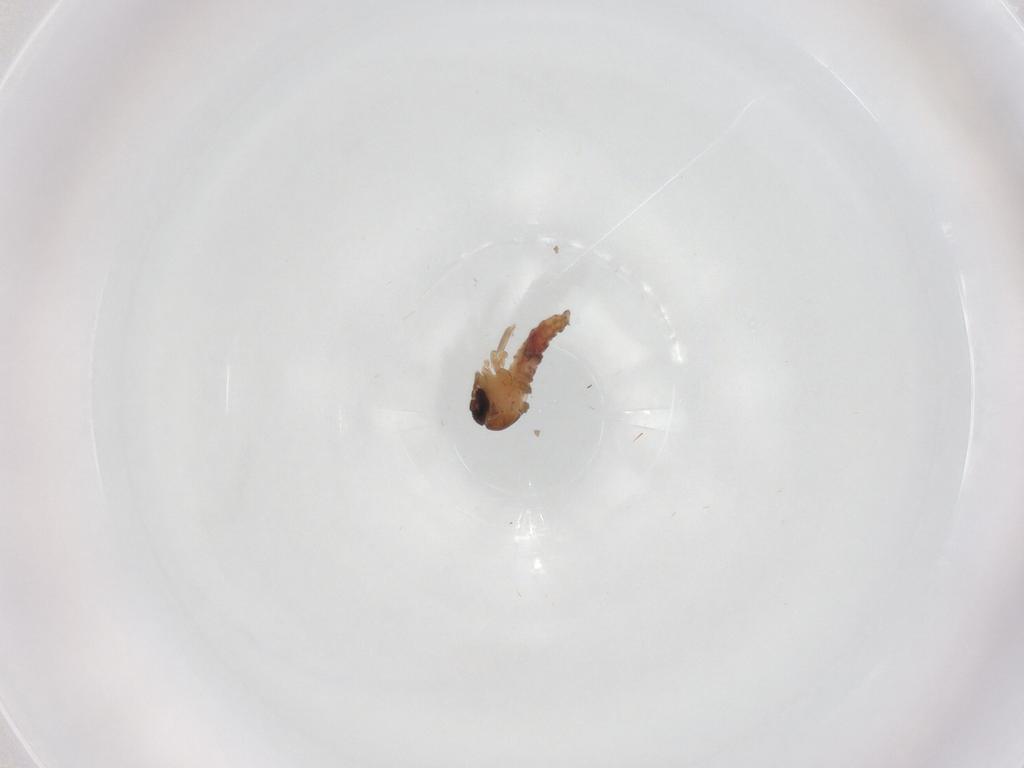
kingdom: Animalia
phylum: Arthropoda
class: Insecta
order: Diptera
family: Psychodidae
